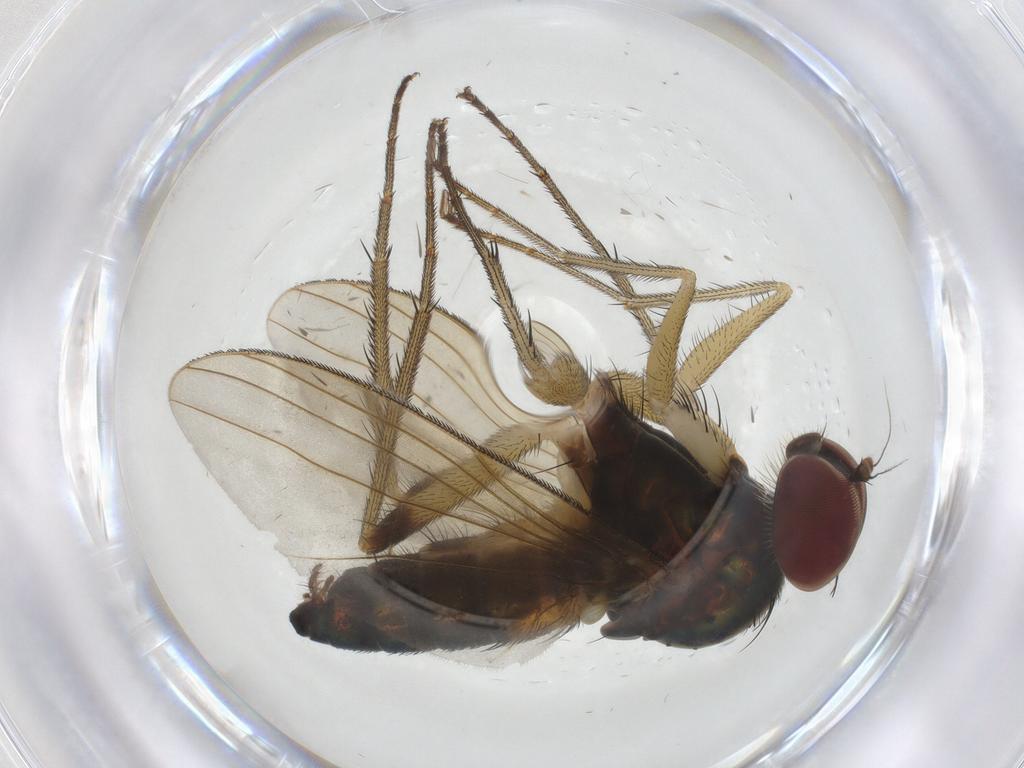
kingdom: Animalia
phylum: Arthropoda
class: Insecta
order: Diptera
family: Empididae
